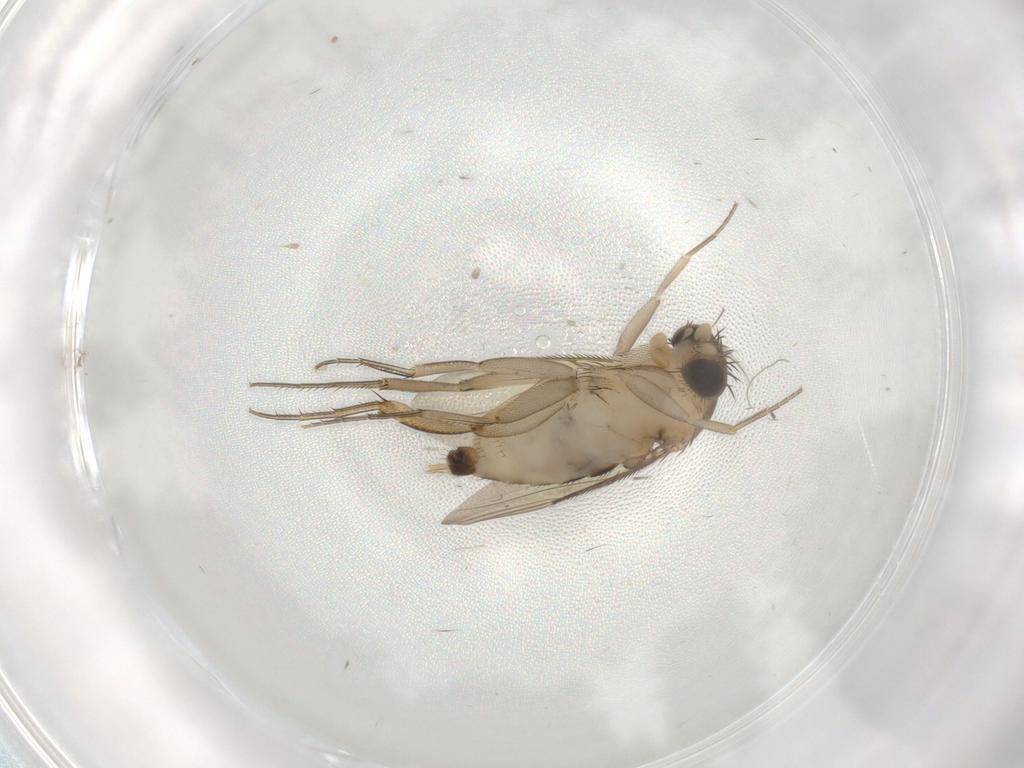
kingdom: Animalia
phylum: Arthropoda
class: Insecta
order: Diptera
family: Phoridae
